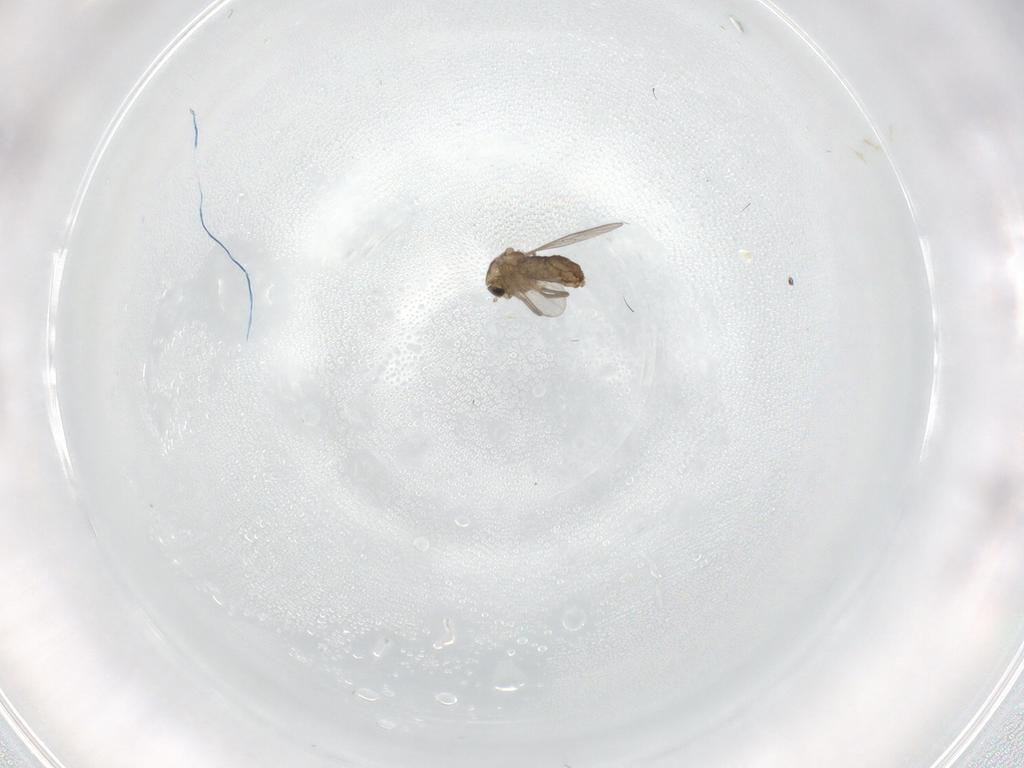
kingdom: Animalia
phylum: Arthropoda
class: Insecta
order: Diptera
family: Chironomidae
